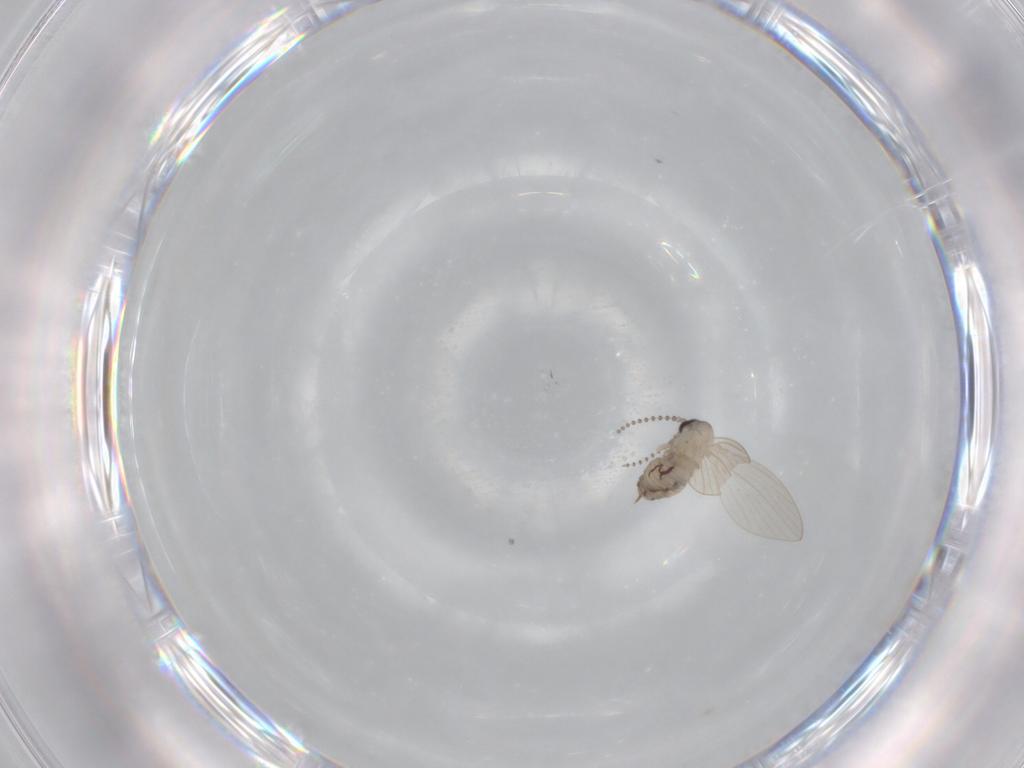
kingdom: Animalia
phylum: Arthropoda
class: Insecta
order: Diptera
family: Psychodidae
